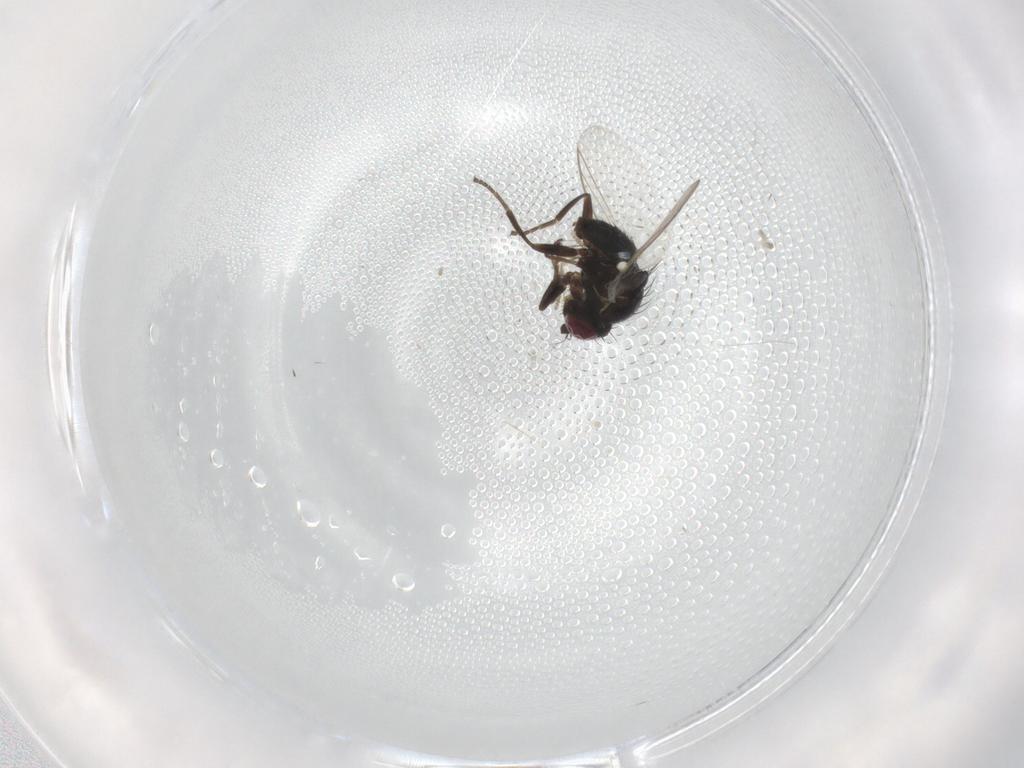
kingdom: Animalia
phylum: Arthropoda
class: Insecta
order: Diptera
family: Agromyzidae
